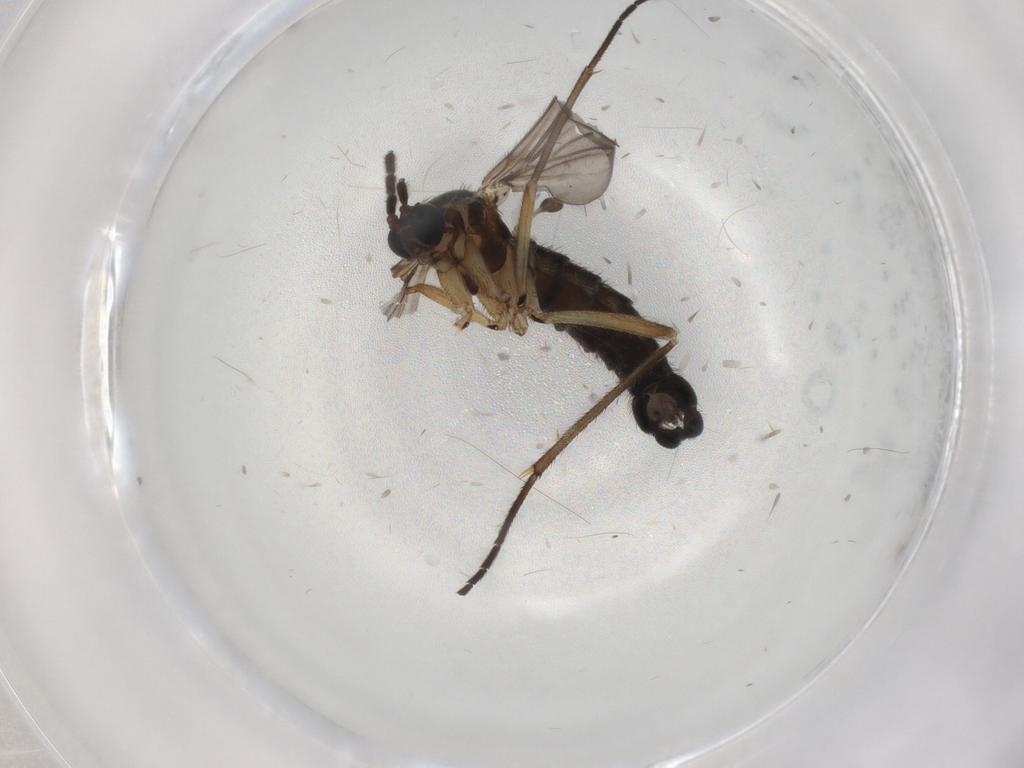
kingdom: Animalia
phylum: Arthropoda
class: Insecta
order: Diptera
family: Sciaridae
